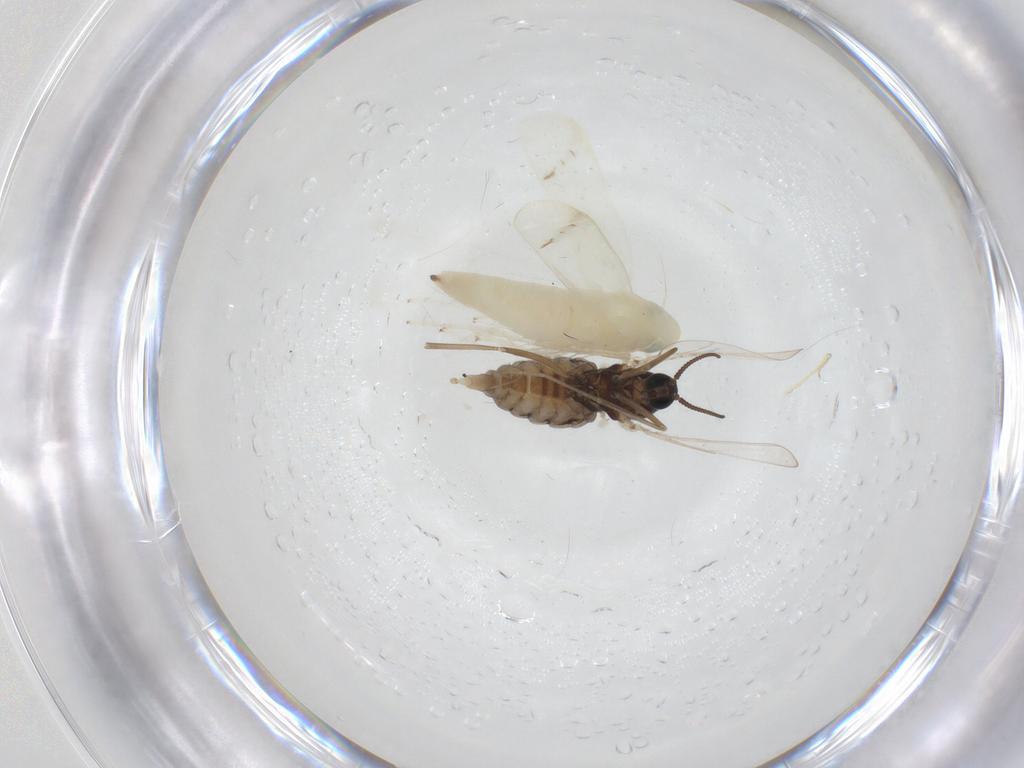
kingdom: Animalia
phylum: Arthropoda
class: Insecta
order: Diptera
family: Cecidomyiidae
